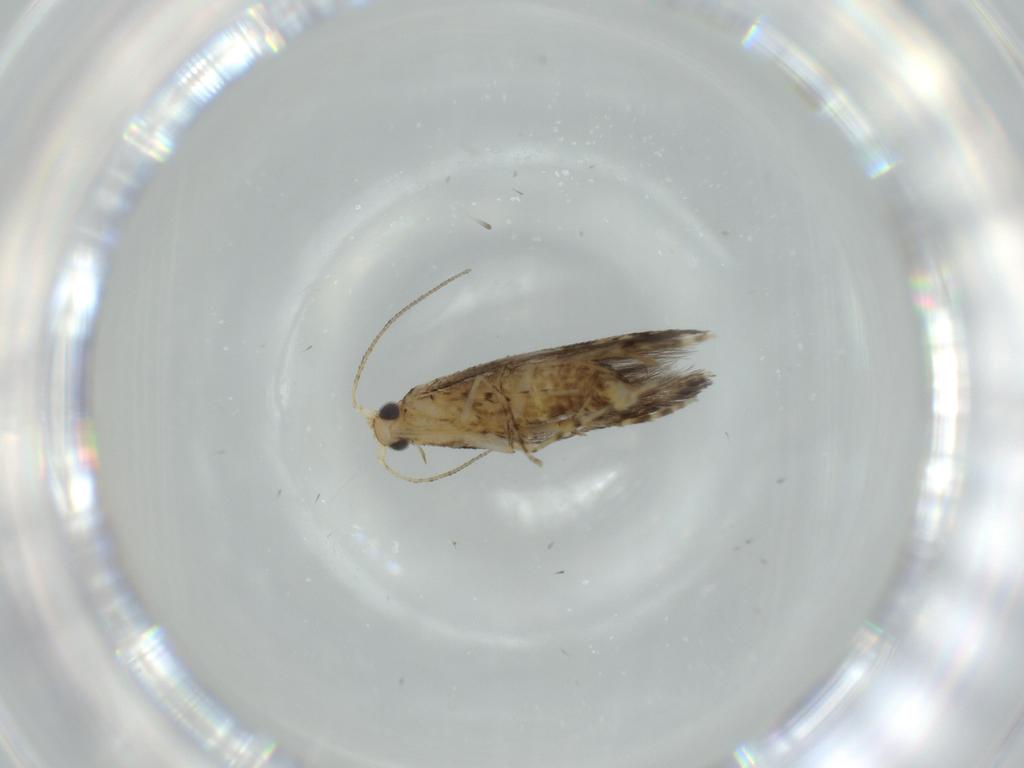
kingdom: Animalia
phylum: Arthropoda
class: Insecta
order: Lepidoptera
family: Argyresthiidae
